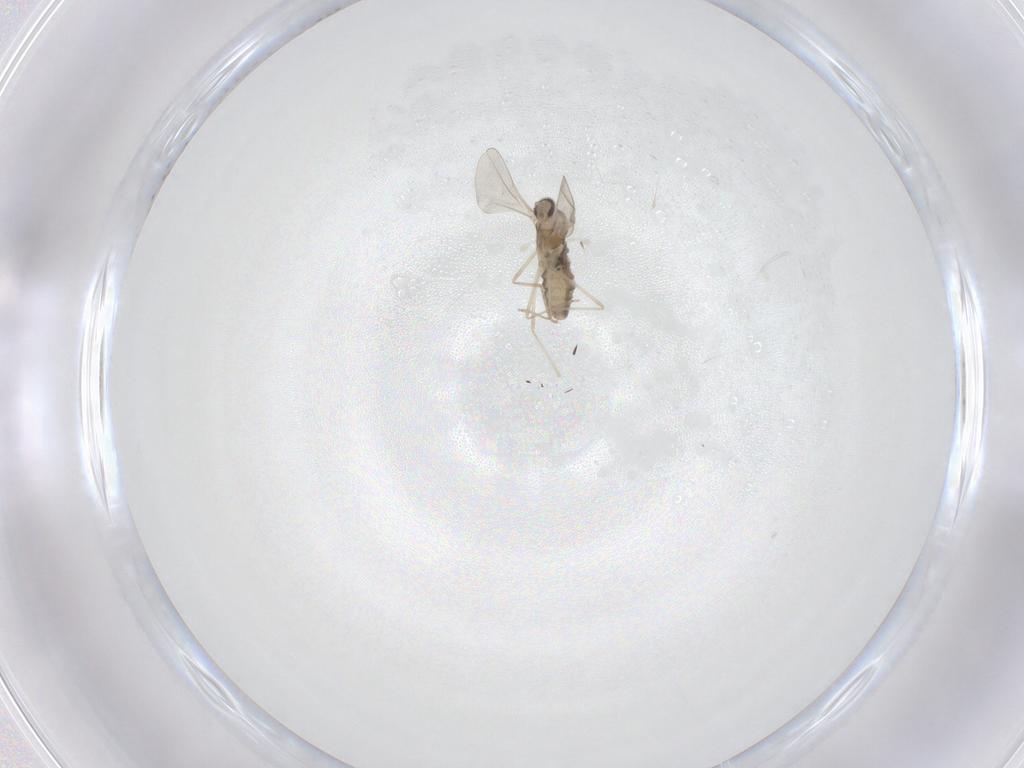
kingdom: Animalia
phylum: Arthropoda
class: Insecta
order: Diptera
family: Cecidomyiidae
